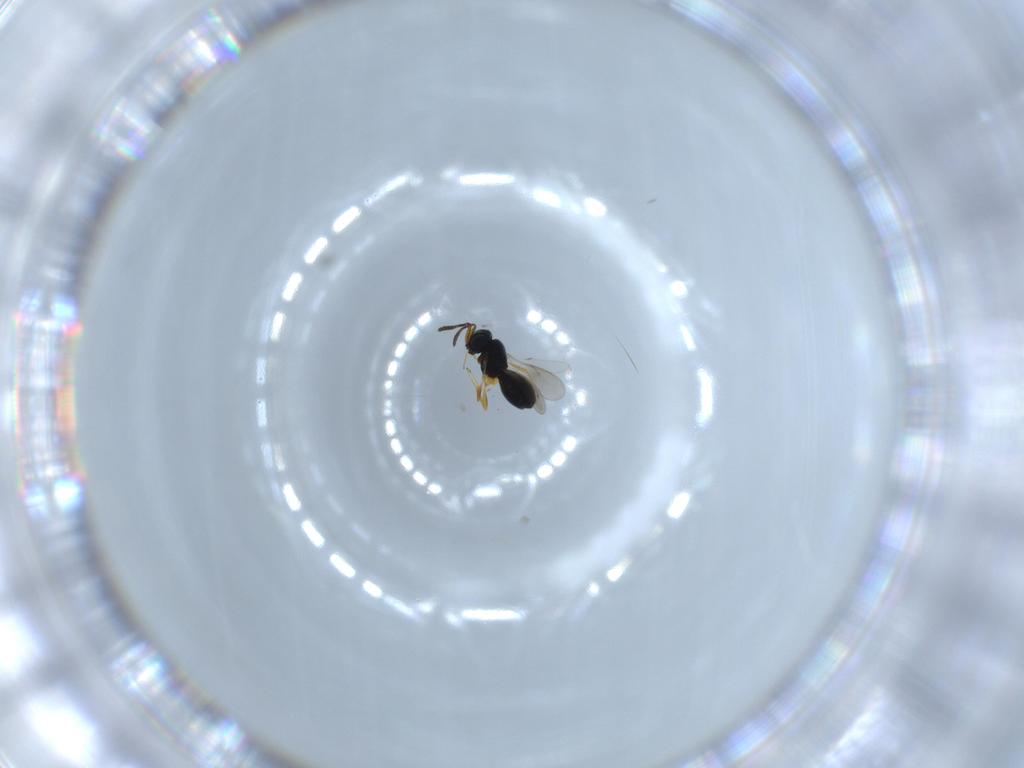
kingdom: Animalia
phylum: Arthropoda
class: Insecta
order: Hymenoptera
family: Scelionidae
